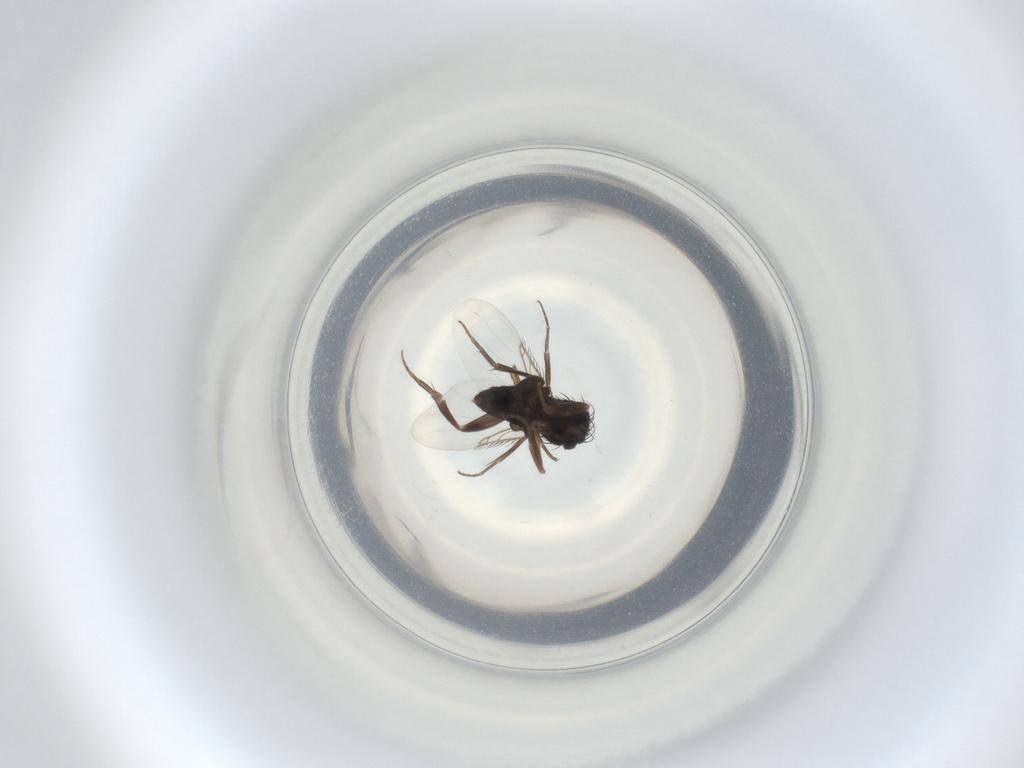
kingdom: Animalia
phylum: Arthropoda
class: Insecta
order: Diptera
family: Phoridae
